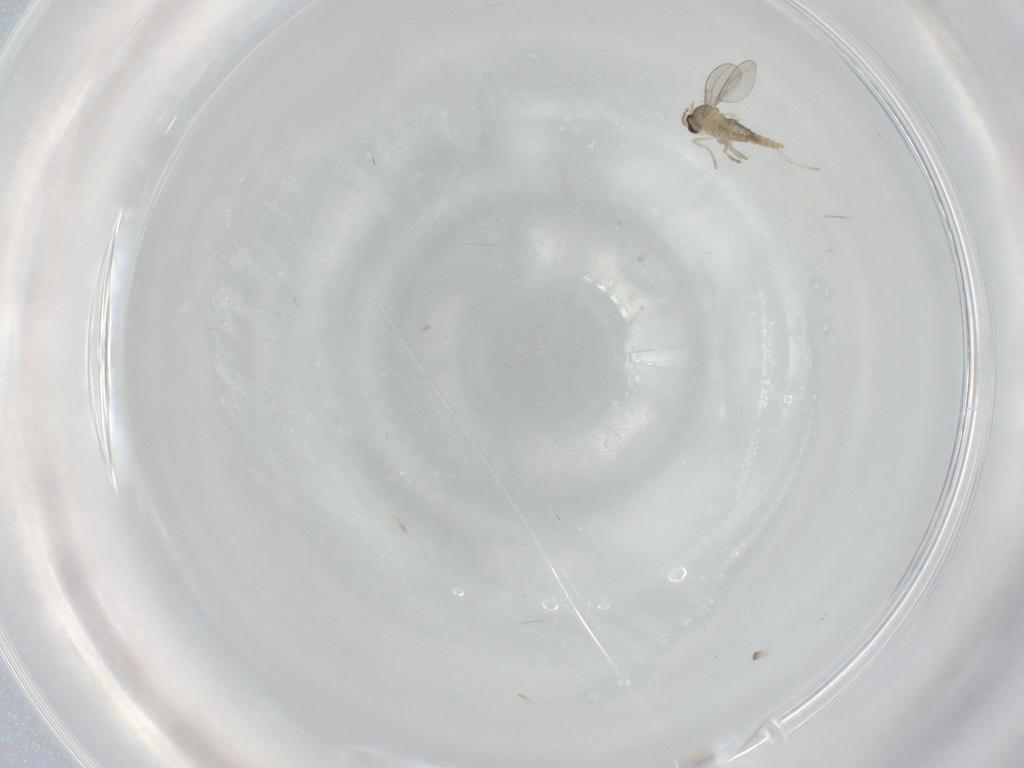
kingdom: Animalia
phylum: Arthropoda
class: Insecta
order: Diptera
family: Cecidomyiidae
